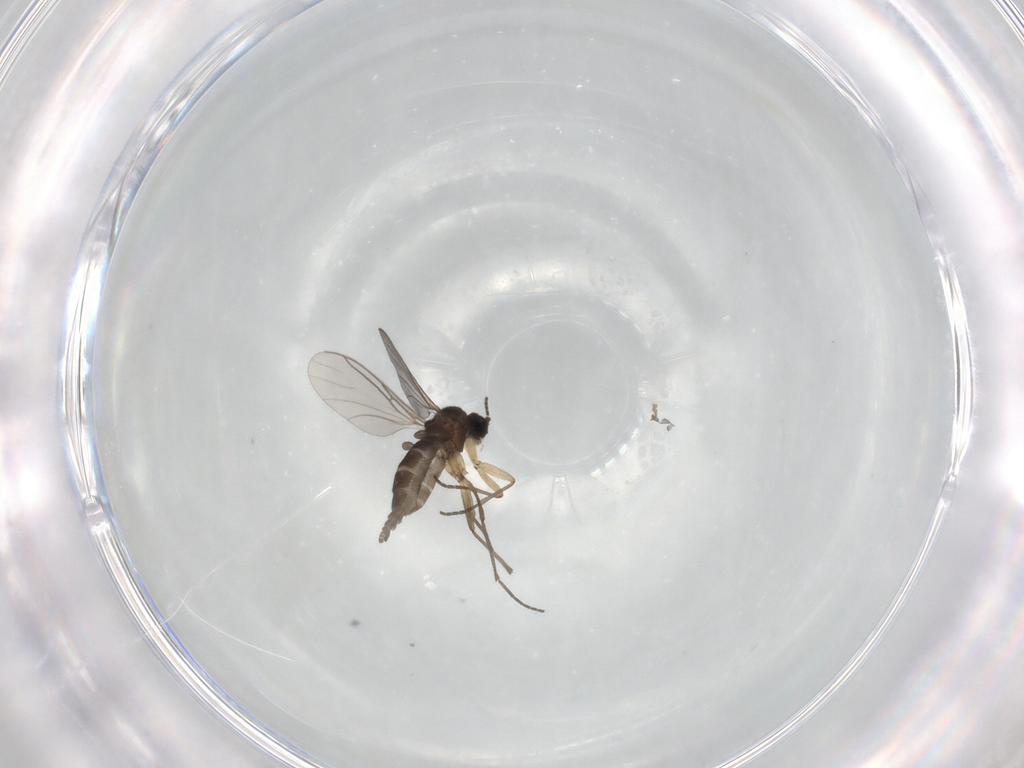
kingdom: Animalia
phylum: Arthropoda
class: Insecta
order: Diptera
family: Sciaridae
